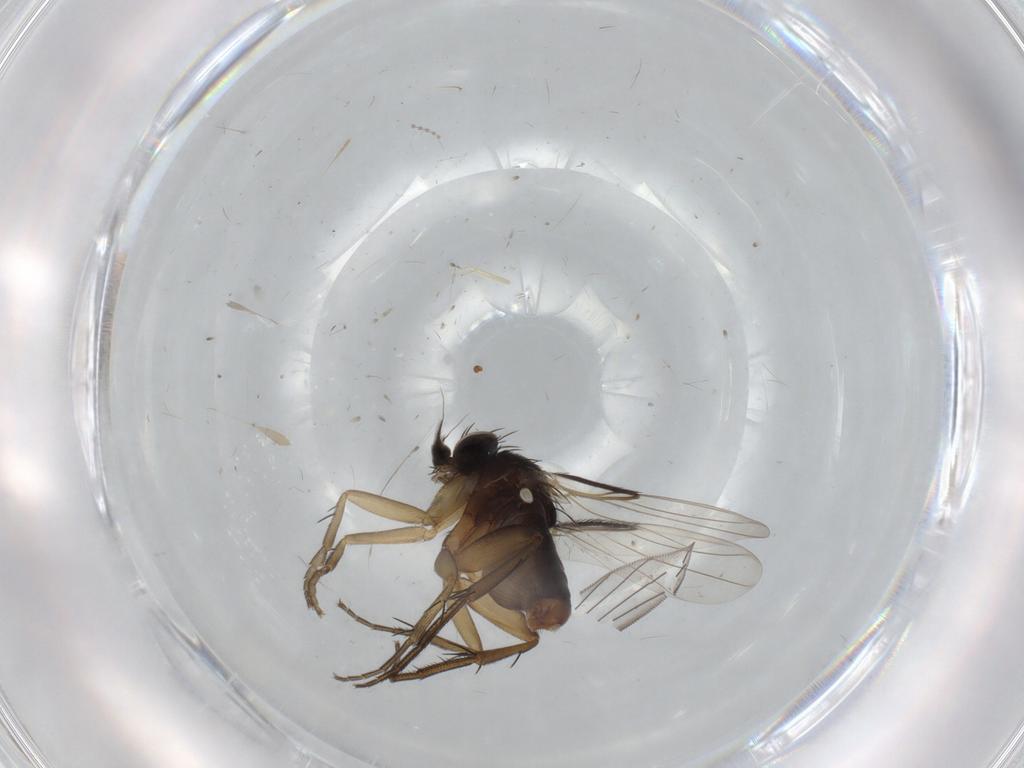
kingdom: Animalia
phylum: Arthropoda
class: Insecta
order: Diptera
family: Phoridae
